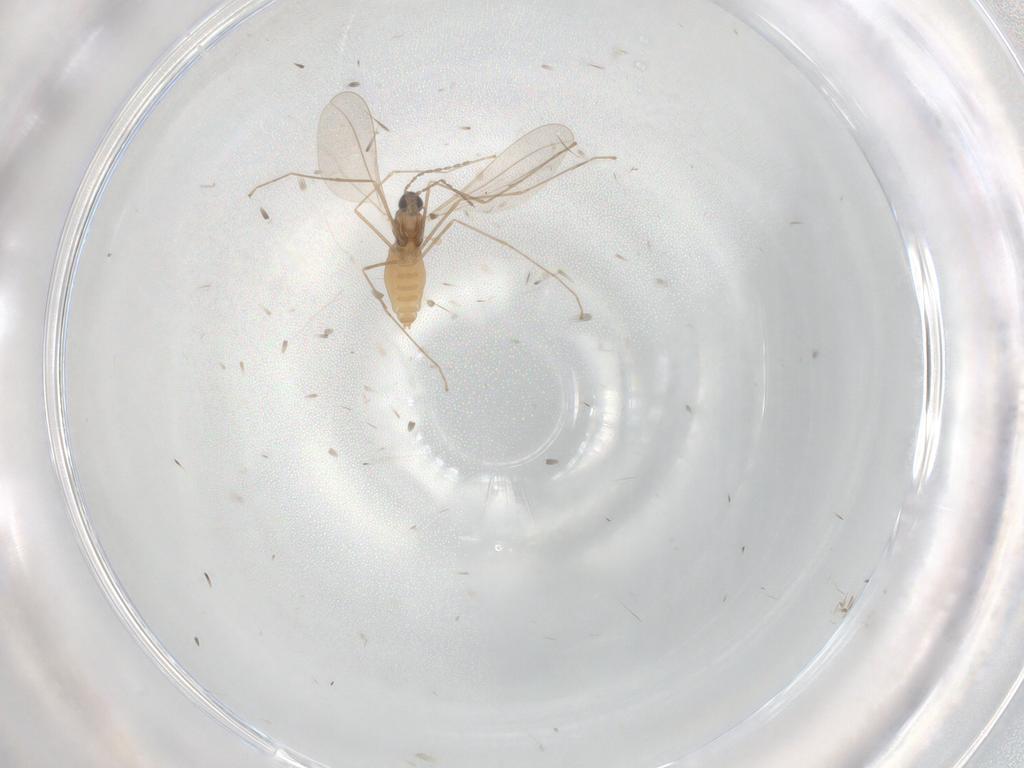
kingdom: Animalia
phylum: Arthropoda
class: Insecta
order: Diptera
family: Cecidomyiidae
